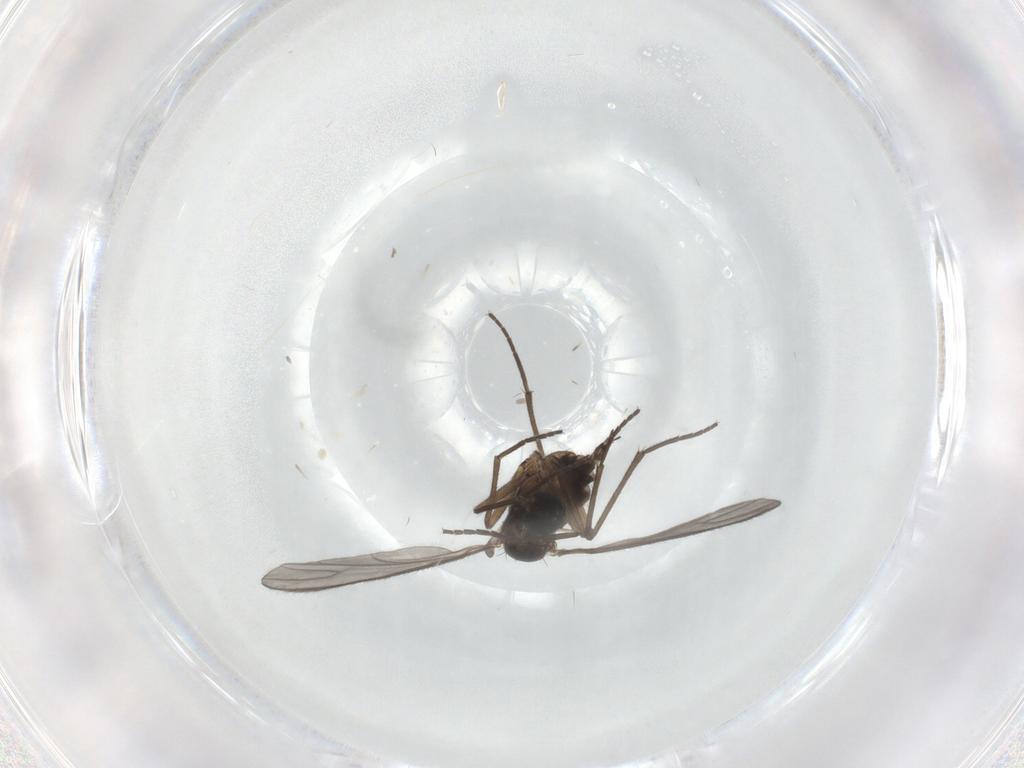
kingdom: Animalia
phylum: Arthropoda
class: Insecta
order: Diptera
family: Sciaridae
